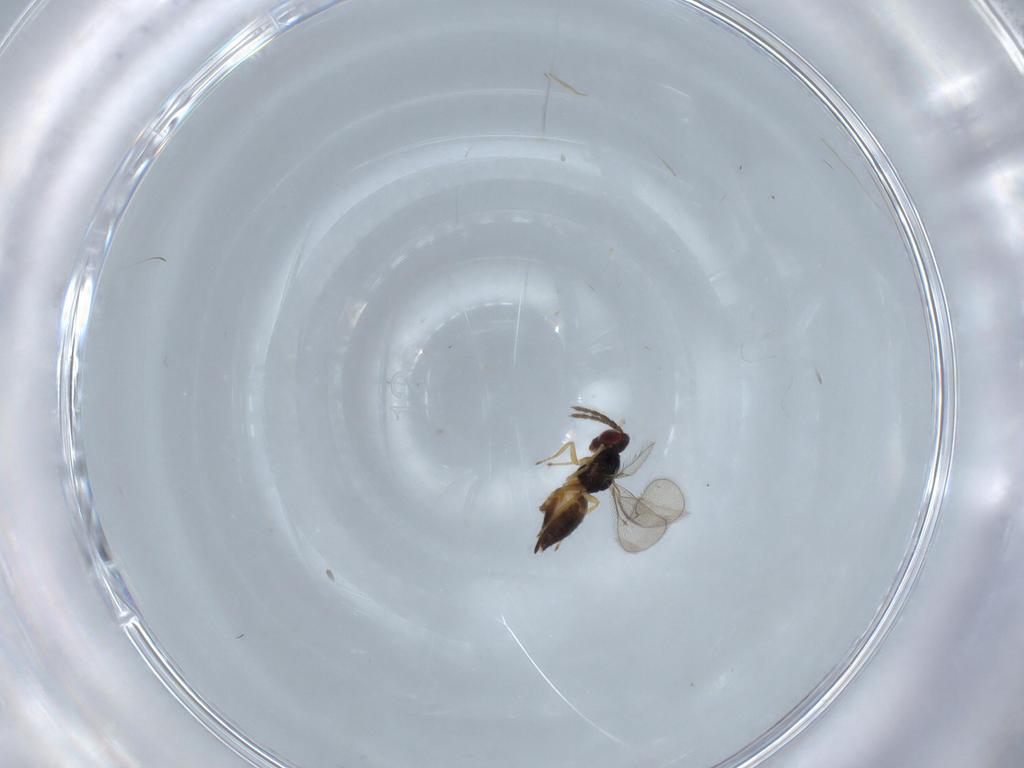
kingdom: Animalia
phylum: Arthropoda
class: Insecta
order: Hymenoptera
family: Eulophidae
